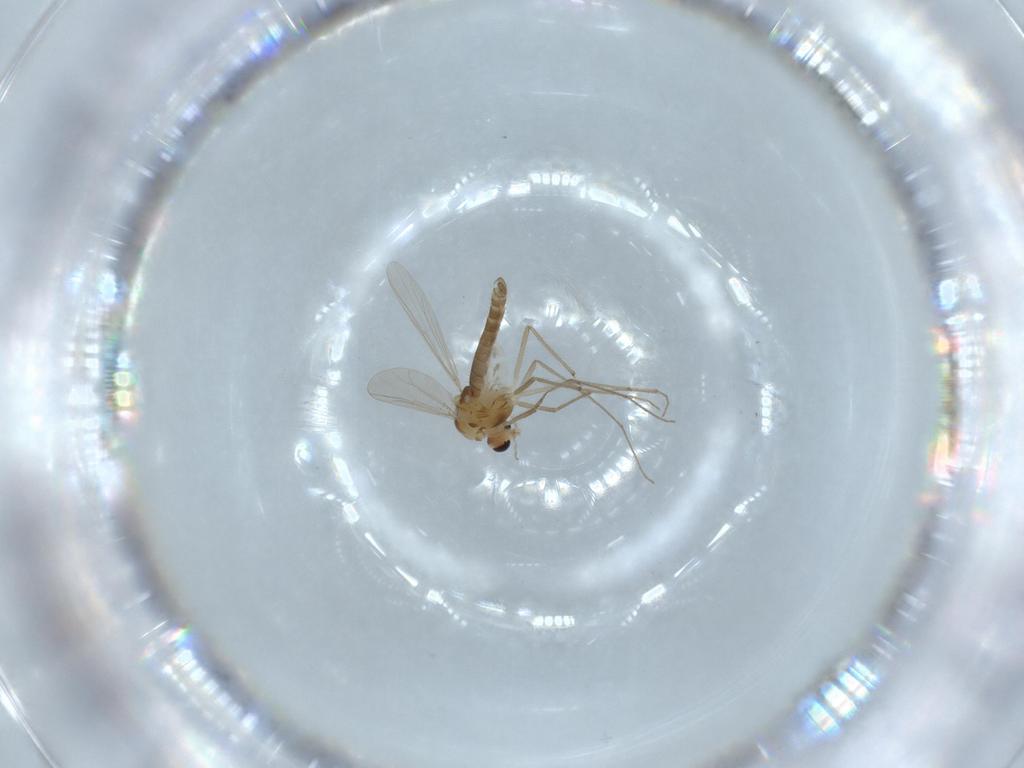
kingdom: Animalia
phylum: Arthropoda
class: Insecta
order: Diptera
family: Chironomidae
